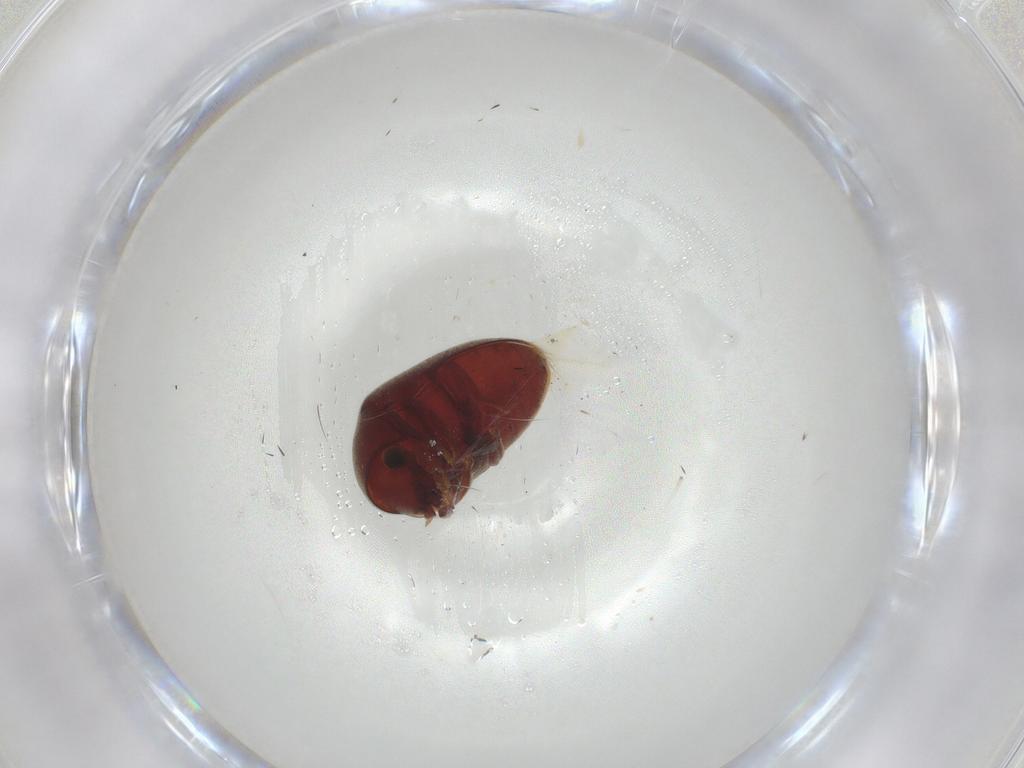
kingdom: Animalia
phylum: Arthropoda
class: Insecta
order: Coleoptera
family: Ptinidae
